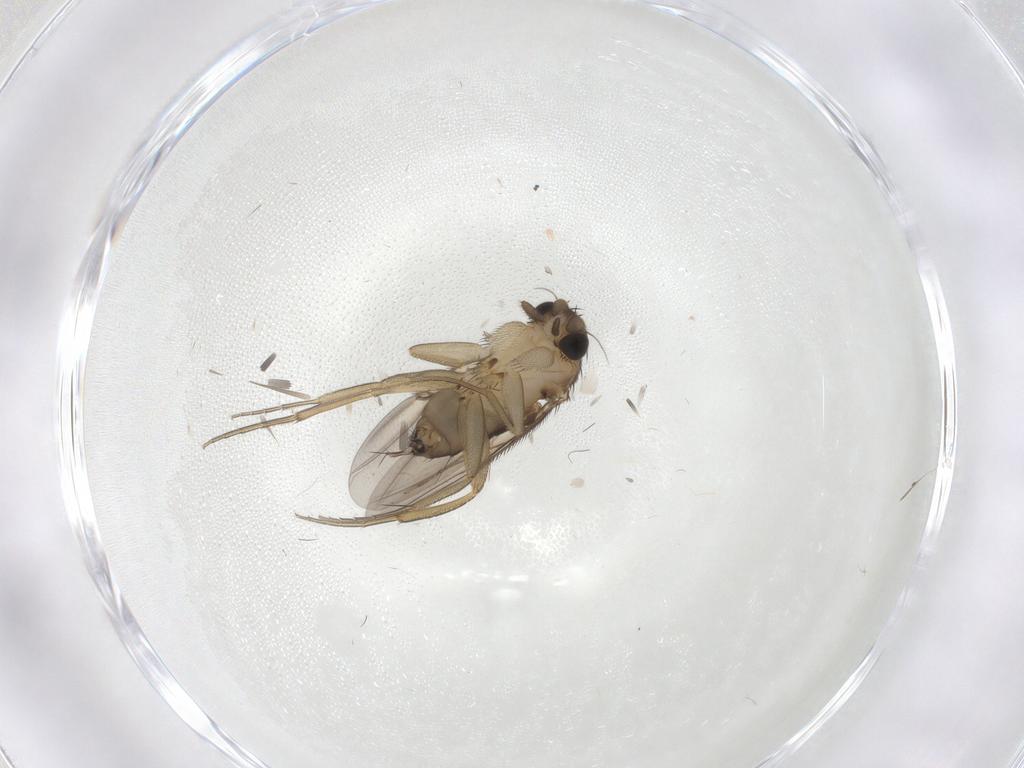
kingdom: Animalia
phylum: Arthropoda
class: Insecta
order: Diptera
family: Phoridae
